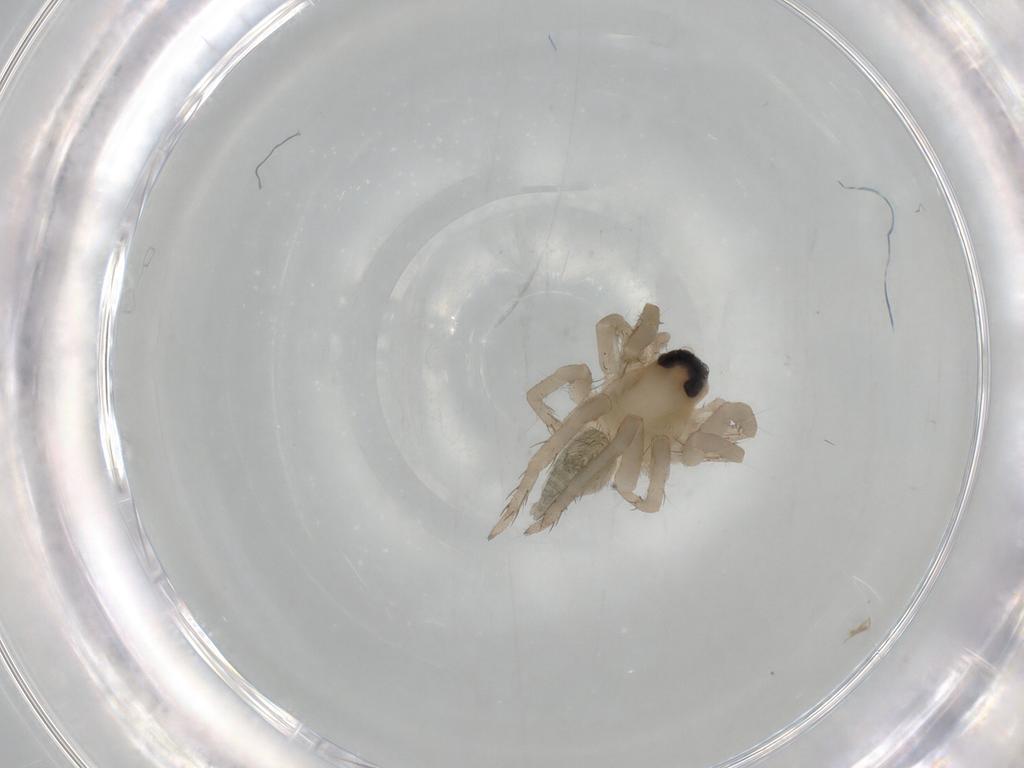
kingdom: Animalia
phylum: Arthropoda
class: Arachnida
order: Araneae
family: Lycosidae
